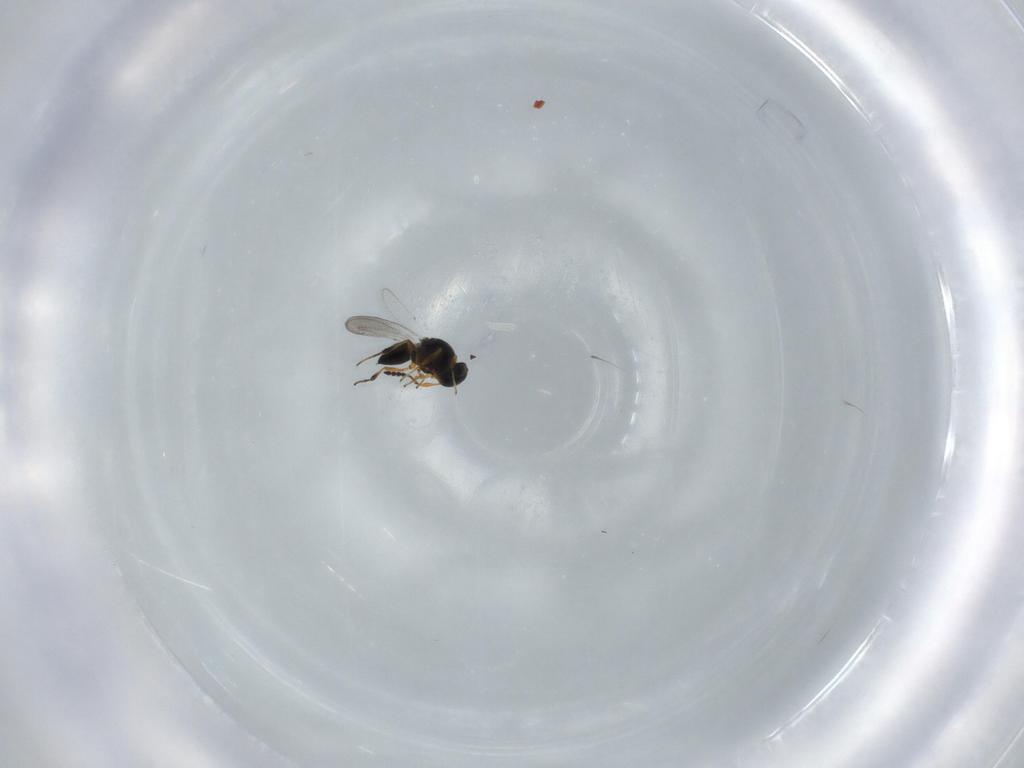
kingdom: Animalia
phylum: Arthropoda
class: Insecta
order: Hymenoptera
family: Platygastridae
